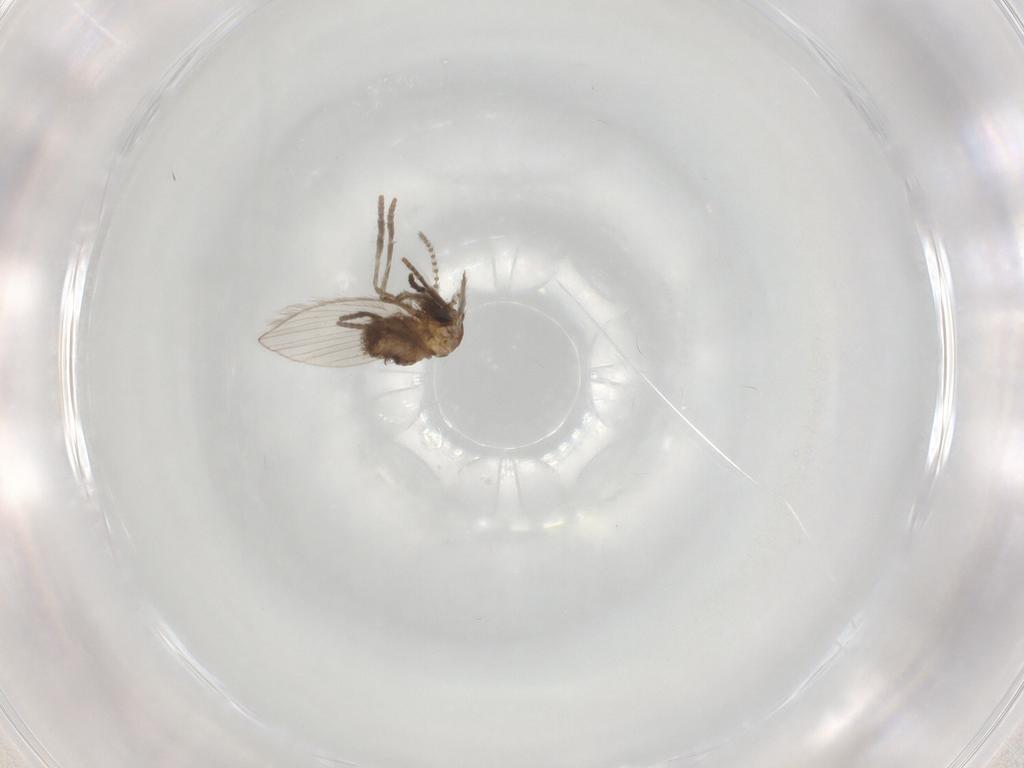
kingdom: Animalia
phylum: Arthropoda
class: Insecta
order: Diptera
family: Psychodidae
